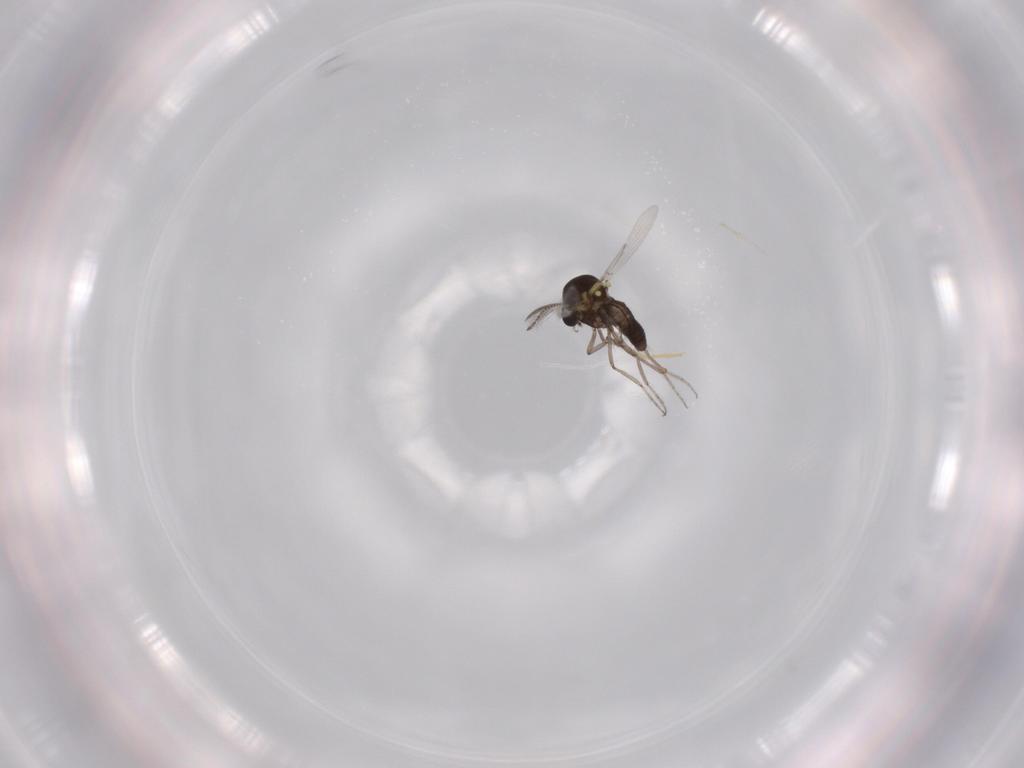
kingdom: Animalia
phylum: Arthropoda
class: Insecta
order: Diptera
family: Ceratopogonidae
